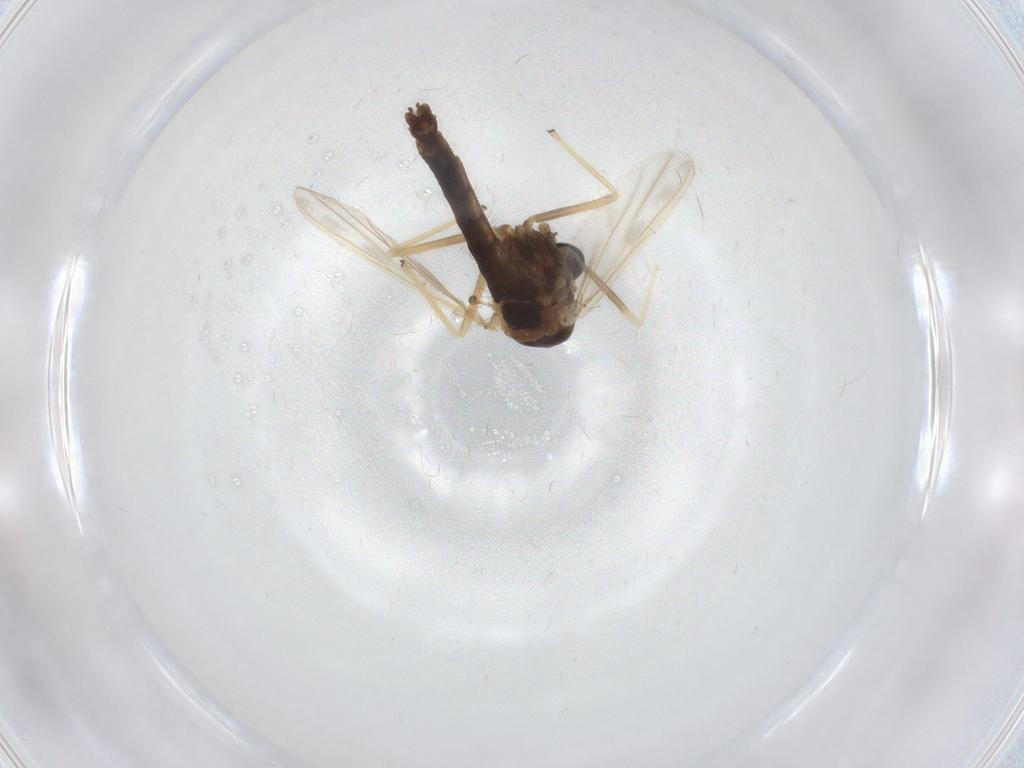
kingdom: Animalia
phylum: Arthropoda
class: Insecta
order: Diptera
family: Chironomidae
